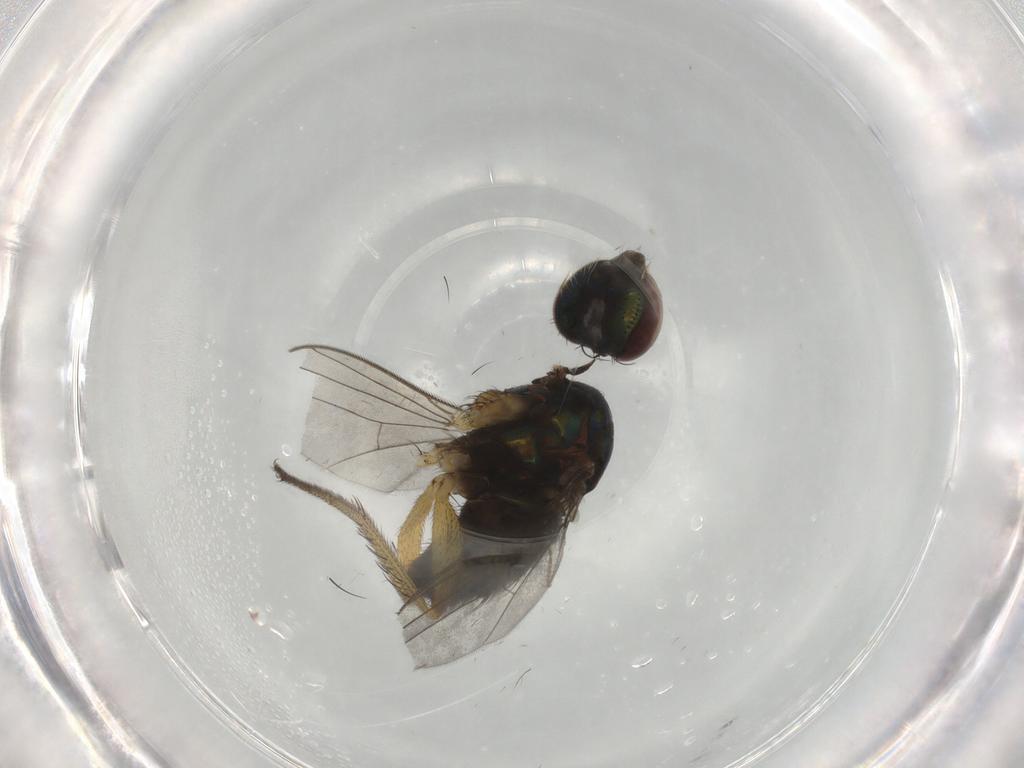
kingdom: Animalia
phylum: Arthropoda
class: Insecta
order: Diptera
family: Dolichopodidae
